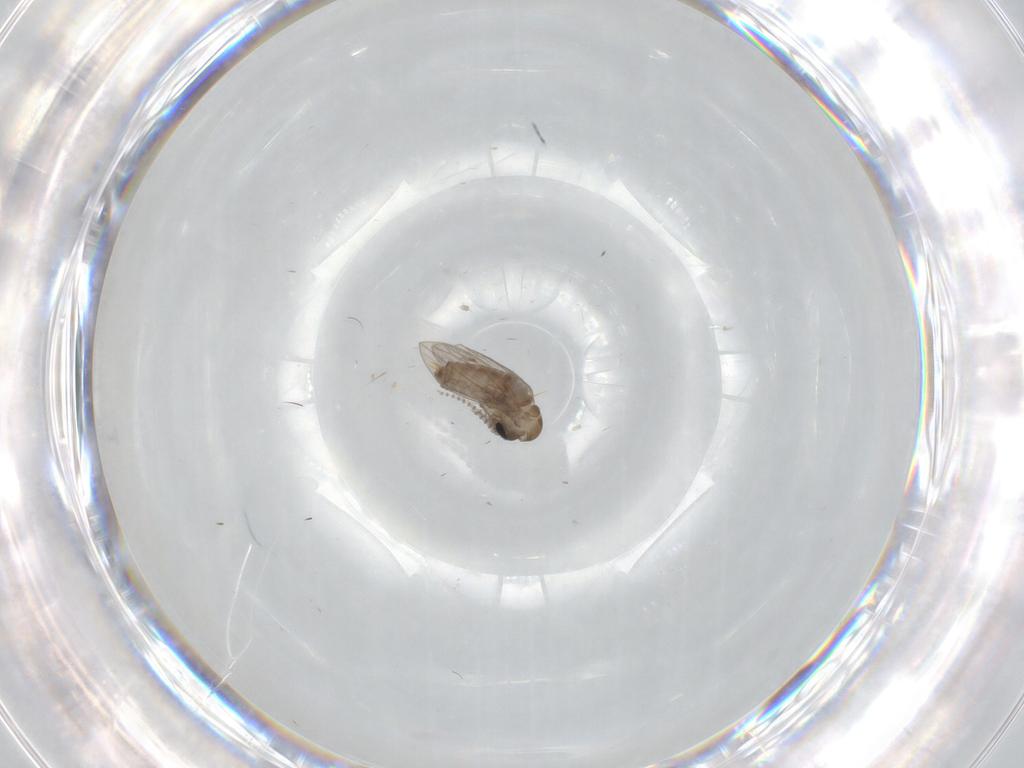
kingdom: Animalia
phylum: Arthropoda
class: Insecta
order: Diptera
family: Psychodidae
